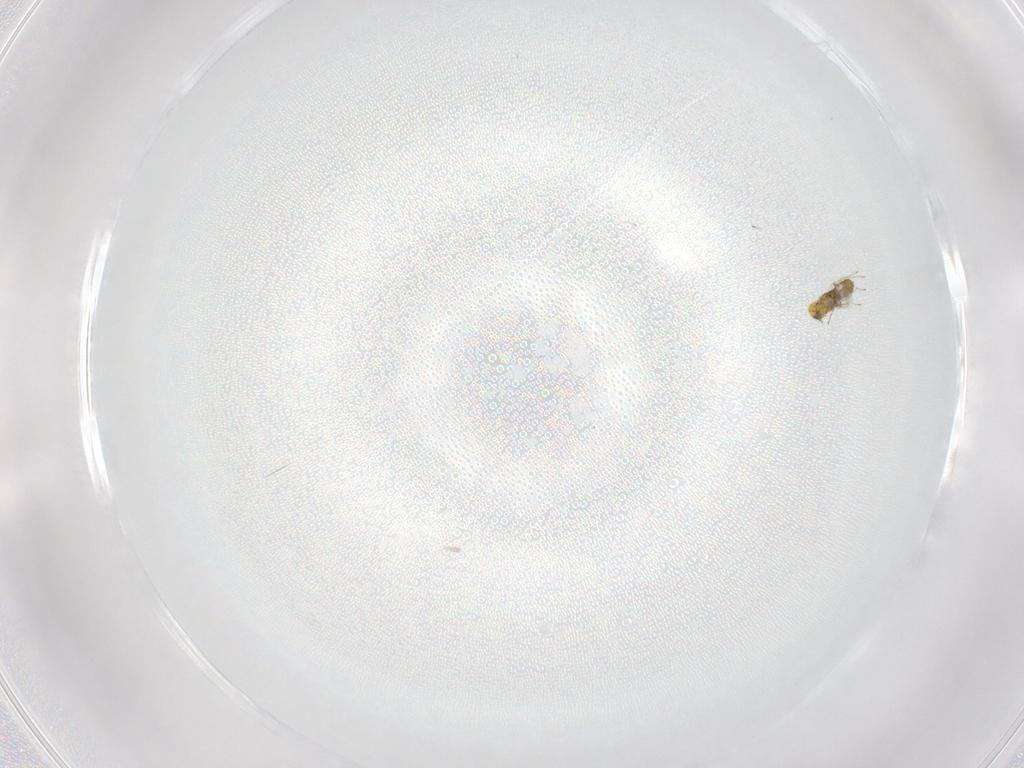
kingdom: Animalia
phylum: Arthropoda
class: Insecta
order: Hymenoptera
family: Eulophidae
